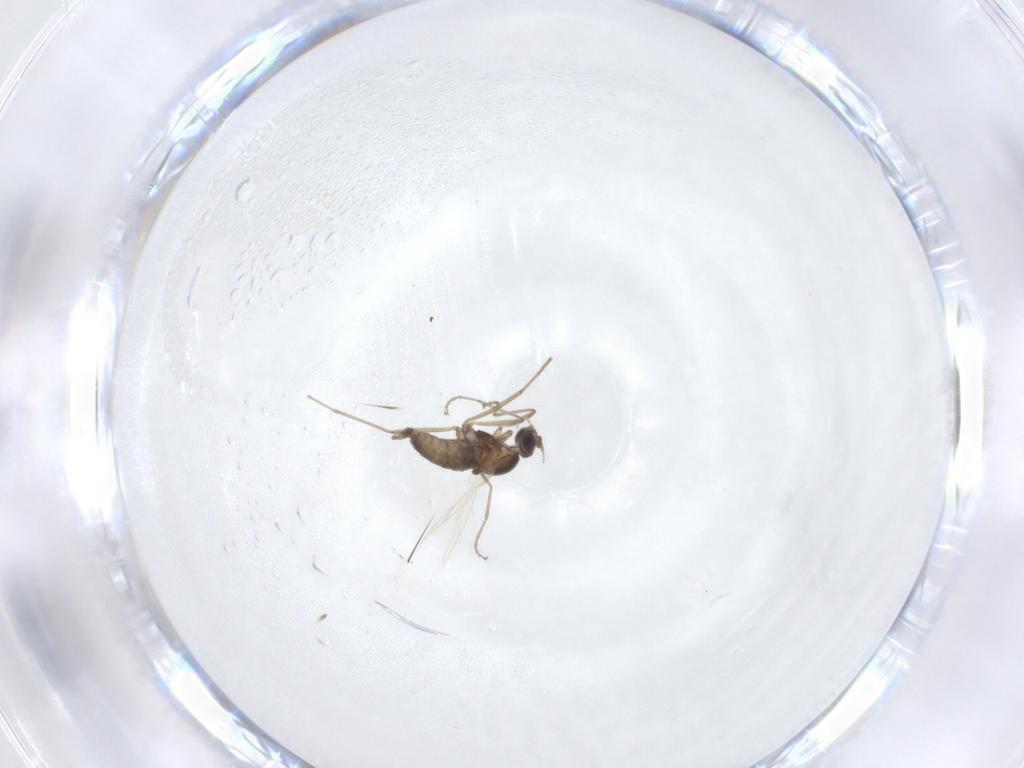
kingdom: Animalia
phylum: Arthropoda
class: Insecta
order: Diptera
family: Cecidomyiidae
